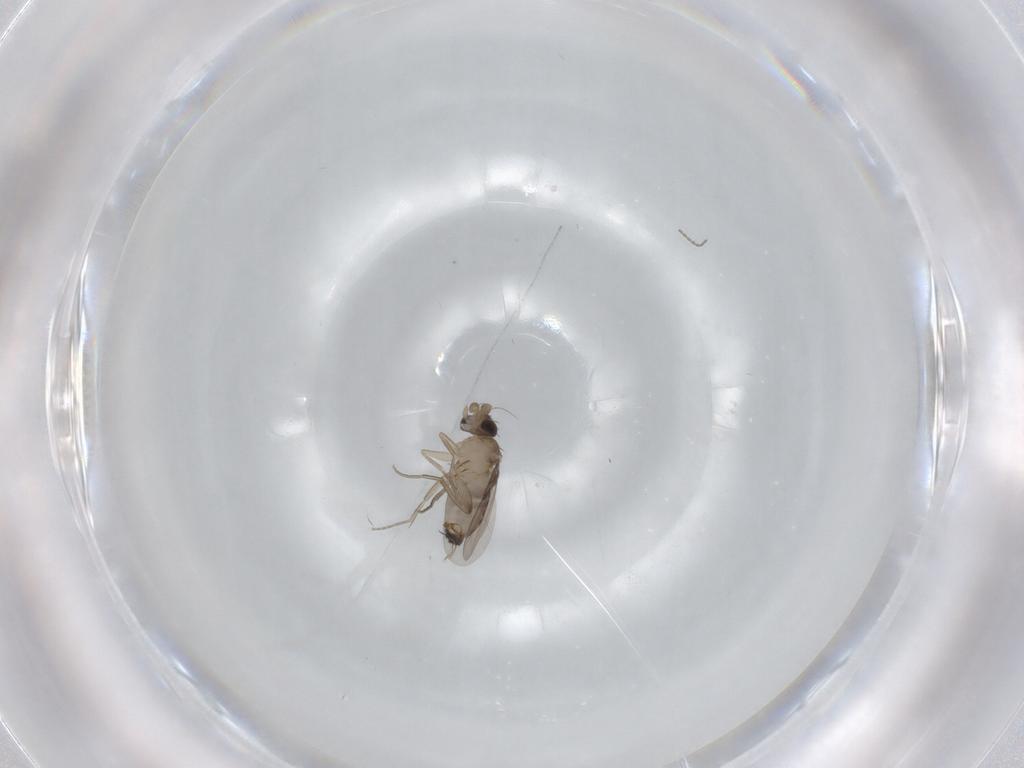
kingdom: Animalia
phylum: Arthropoda
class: Insecta
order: Diptera
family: Phoridae
